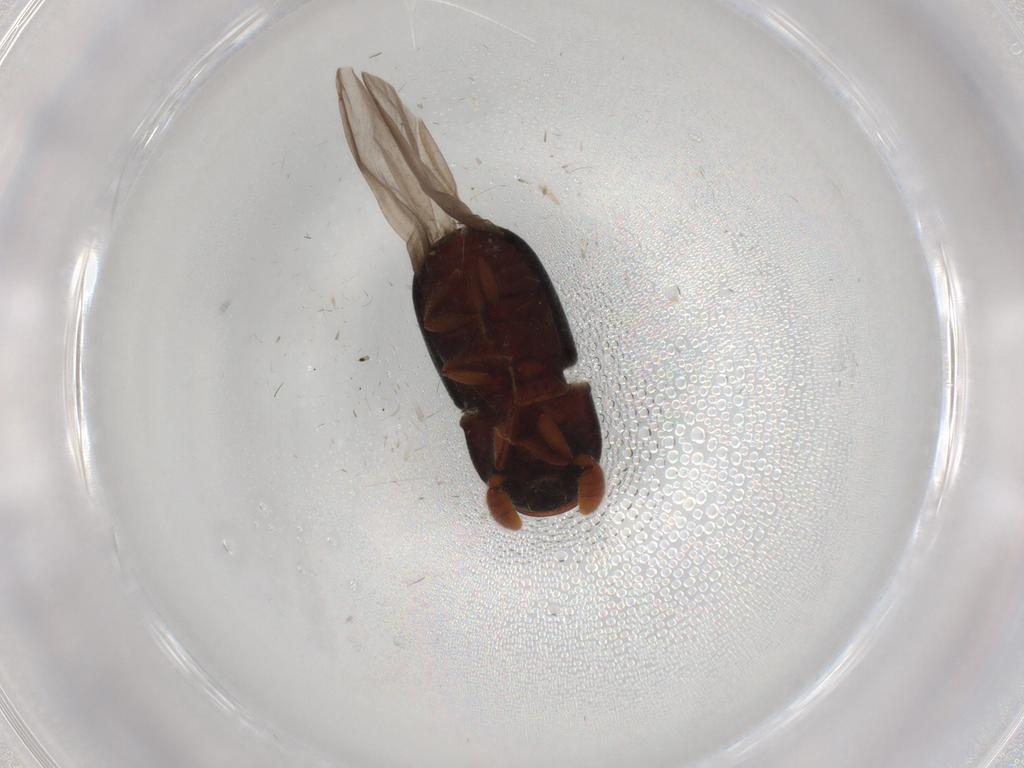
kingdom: Animalia
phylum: Arthropoda
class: Insecta
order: Coleoptera
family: Curculionidae
